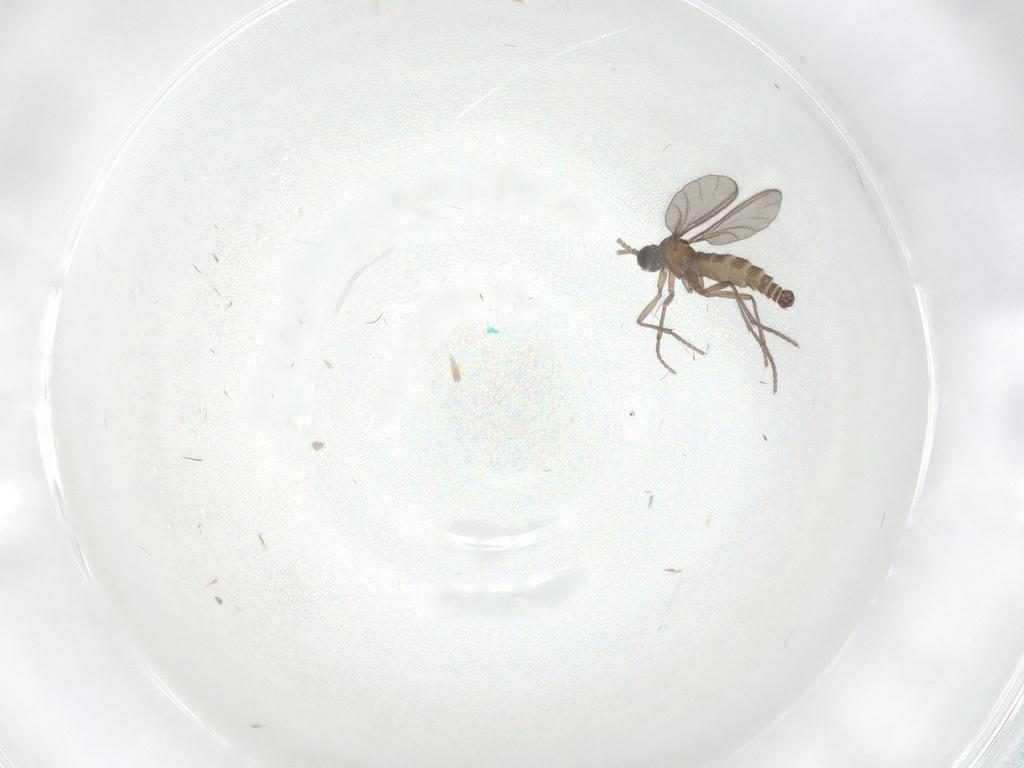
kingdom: Animalia
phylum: Arthropoda
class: Insecta
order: Diptera
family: Sciaridae
